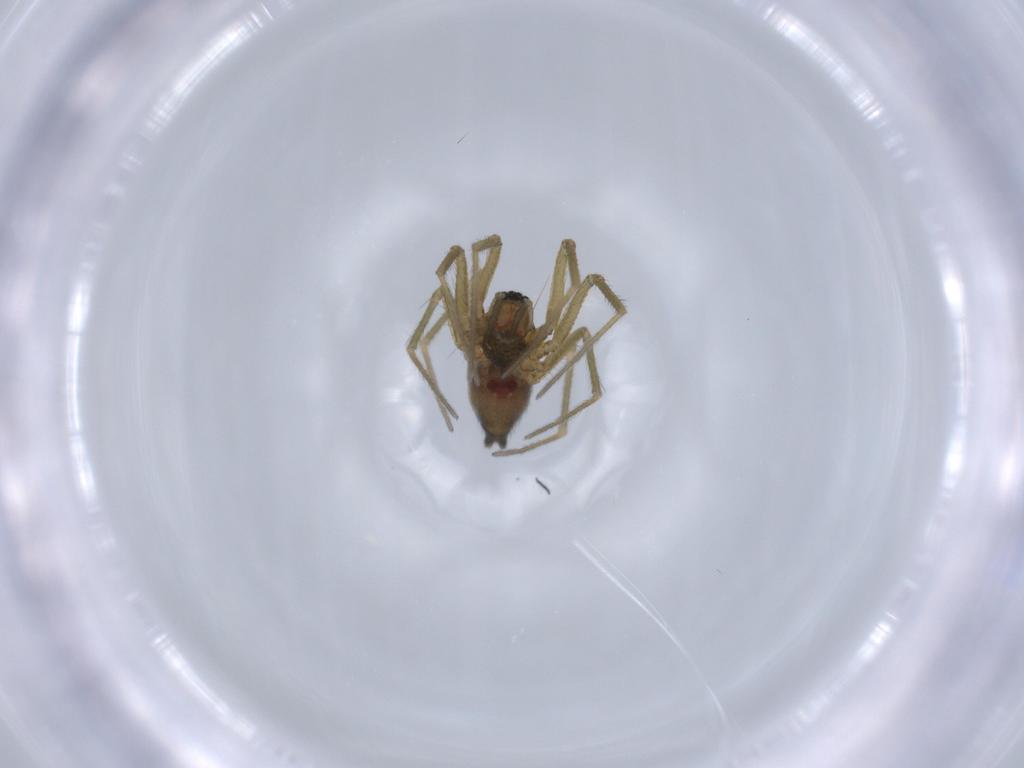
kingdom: Animalia
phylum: Arthropoda
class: Arachnida
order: Araneae
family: Linyphiidae
